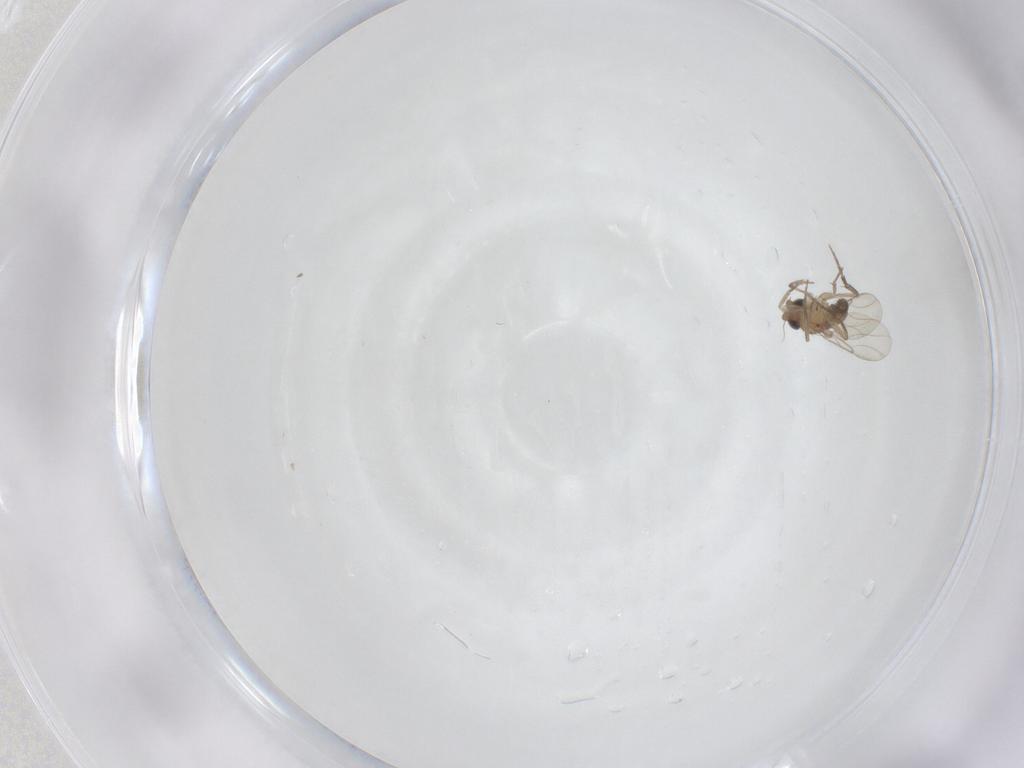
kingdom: Animalia
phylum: Arthropoda
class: Insecta
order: Diptera
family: Phoridae
